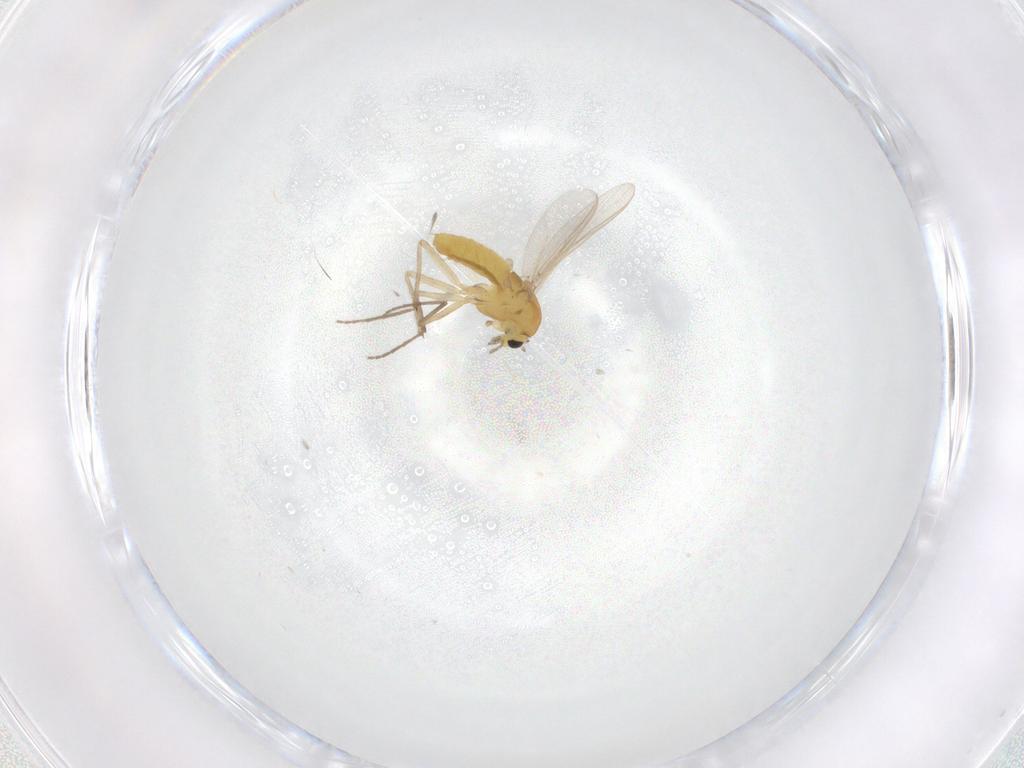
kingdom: Animalia
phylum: Arthropoda
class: Insecta
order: Diptera
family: Chironomidae
